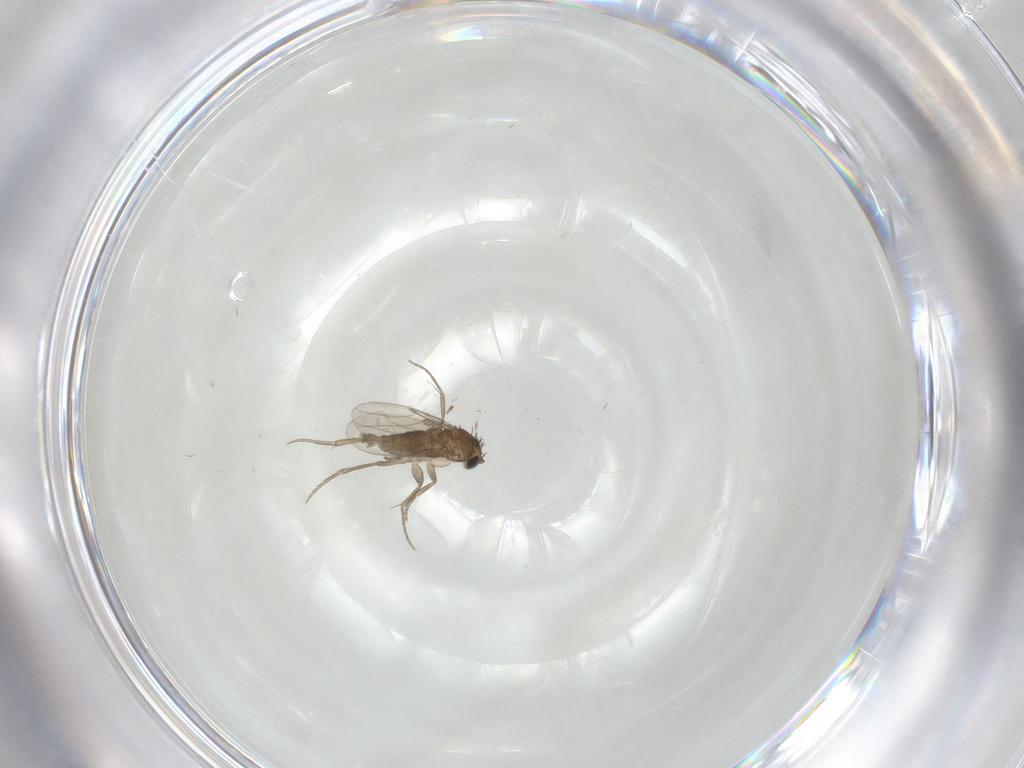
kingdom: Animalia
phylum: Arthropoda
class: Insecta
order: Diptera
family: Phoridae
